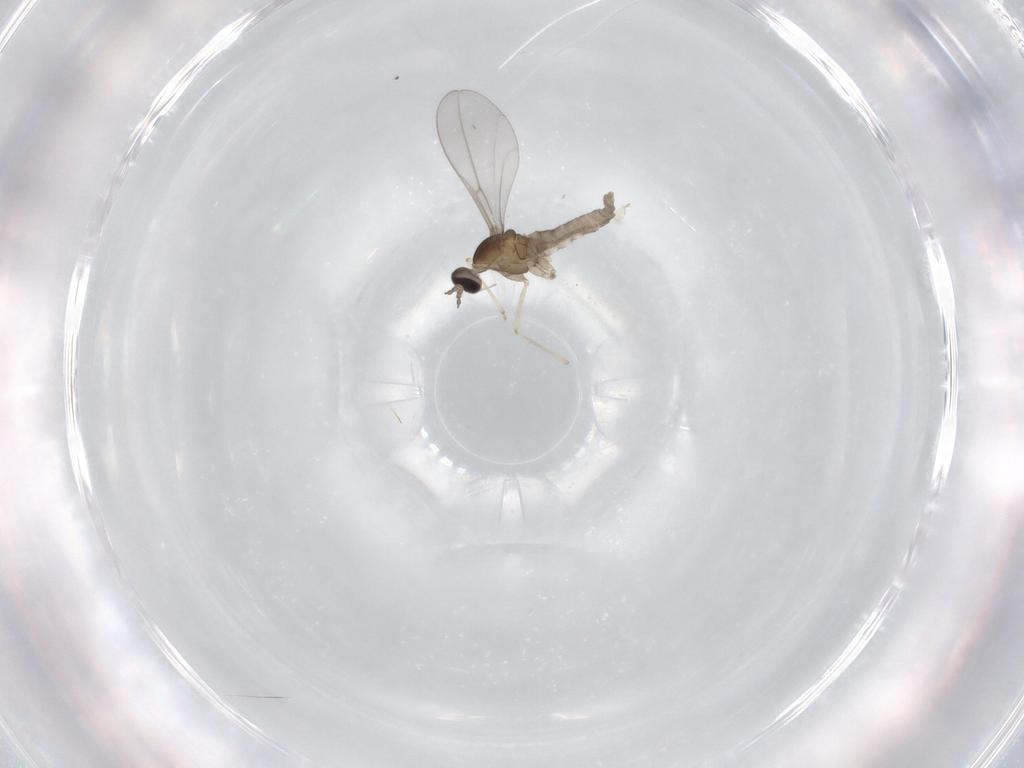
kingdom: Animalia
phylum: Arthropoda
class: Insecta
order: Diptera
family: Cecidomyiidae
